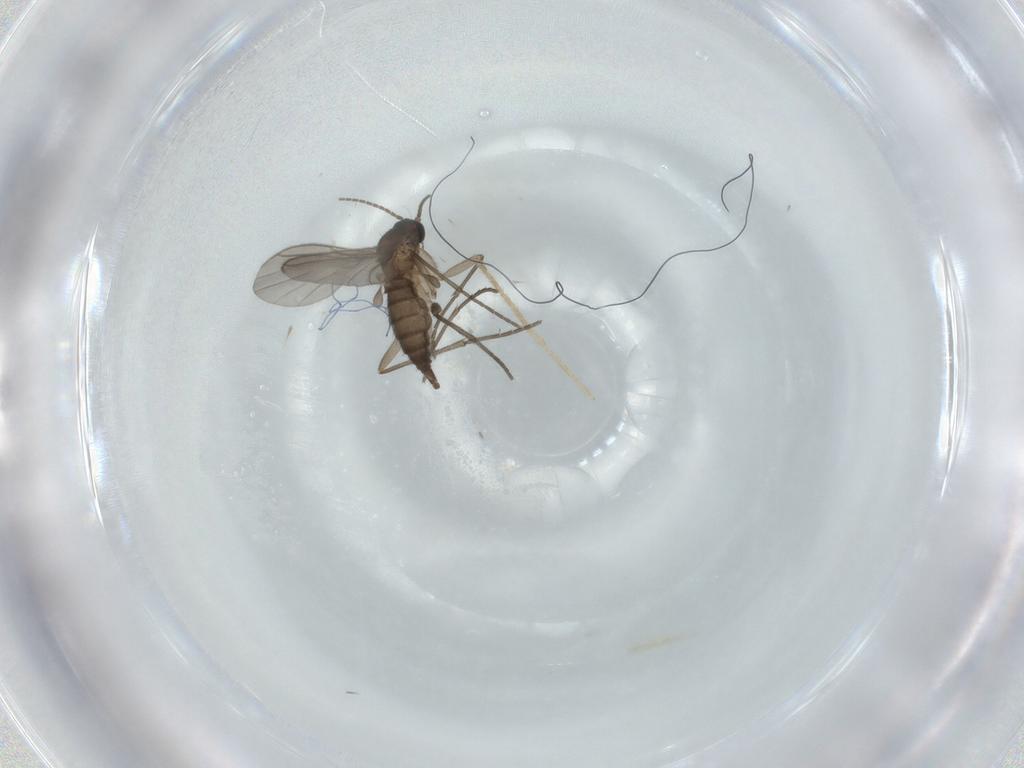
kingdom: Animalia
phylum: Arthropoda
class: Insecta
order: Diptera
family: Sciaridae
